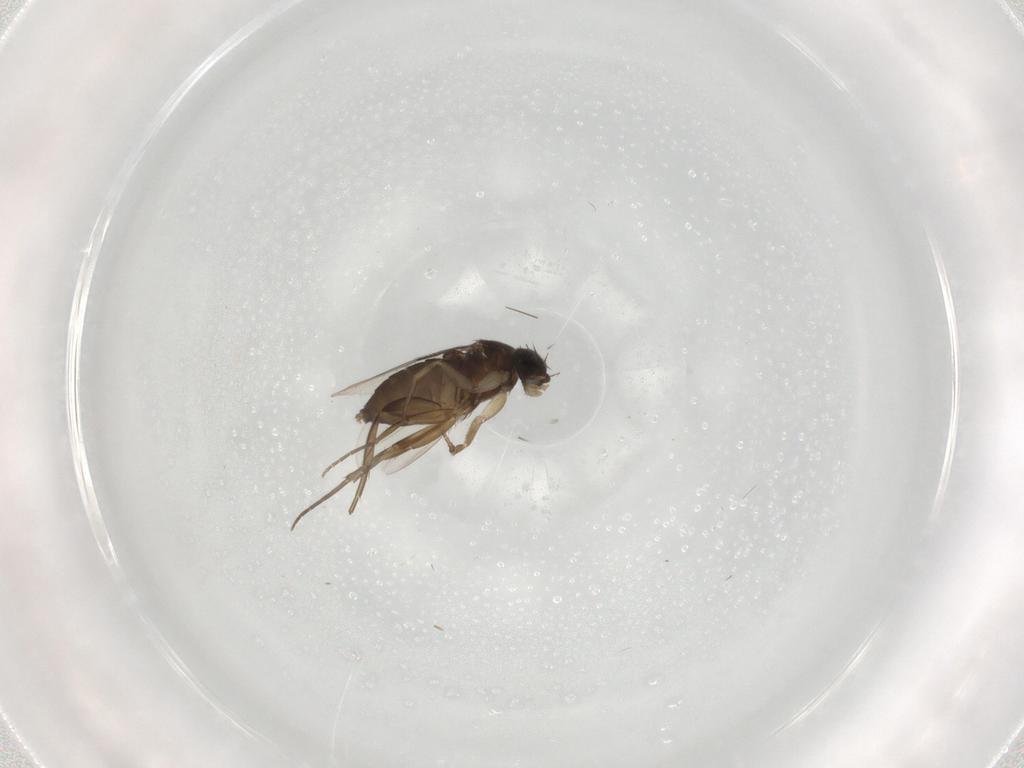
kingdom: Animalia
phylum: Arthropoda
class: Insecta
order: Diptera
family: Phoridae
